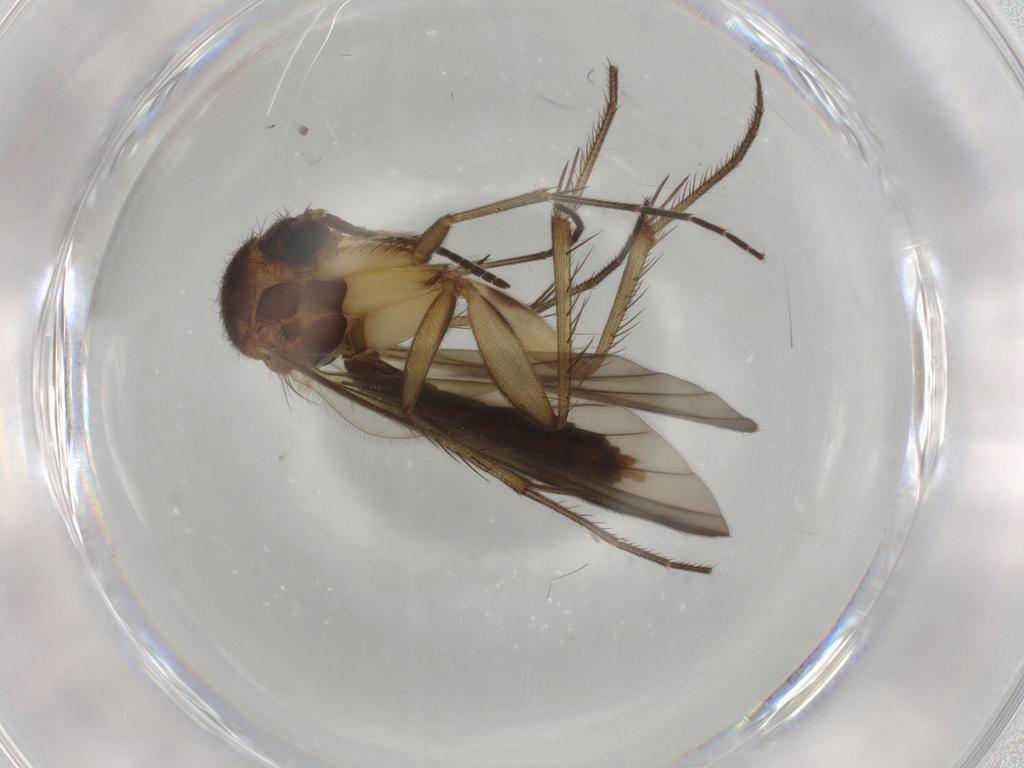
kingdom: Animalia
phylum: Arthropoda
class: Insecta
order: Diptera
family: Mycetophilidae
